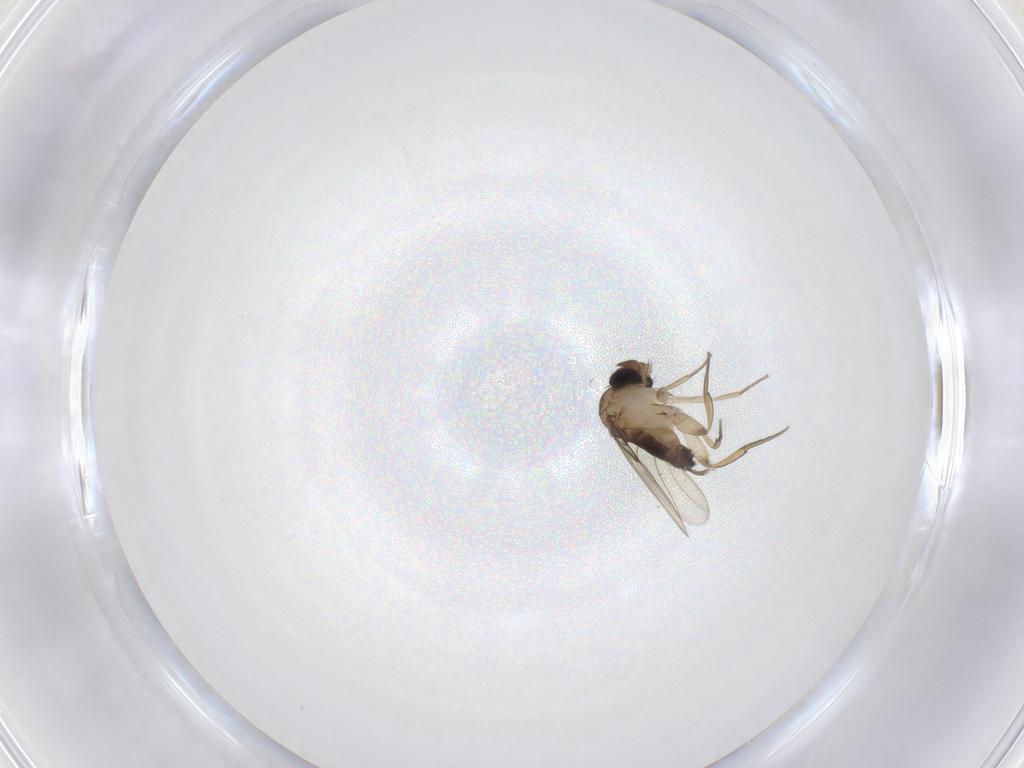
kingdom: Animalia
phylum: Arthropoda
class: Insecta
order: Diptera
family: Phoridae
